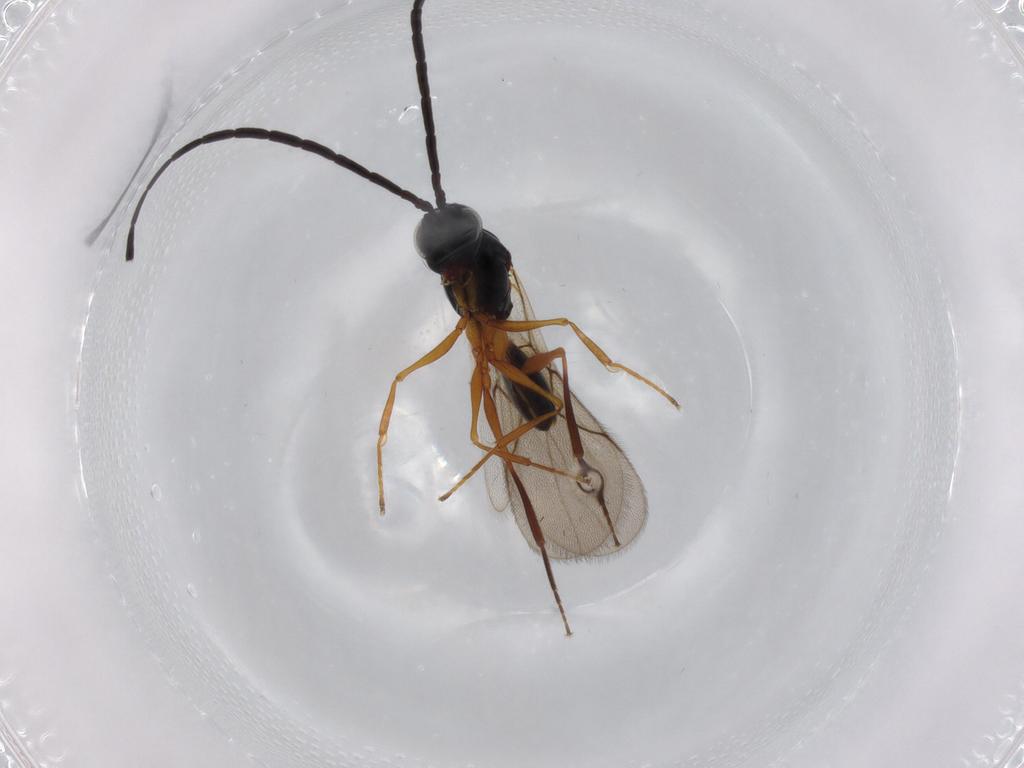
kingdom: Animalia
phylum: Arthropoda
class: Insecta
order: Hymenoptera
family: Figitidae
